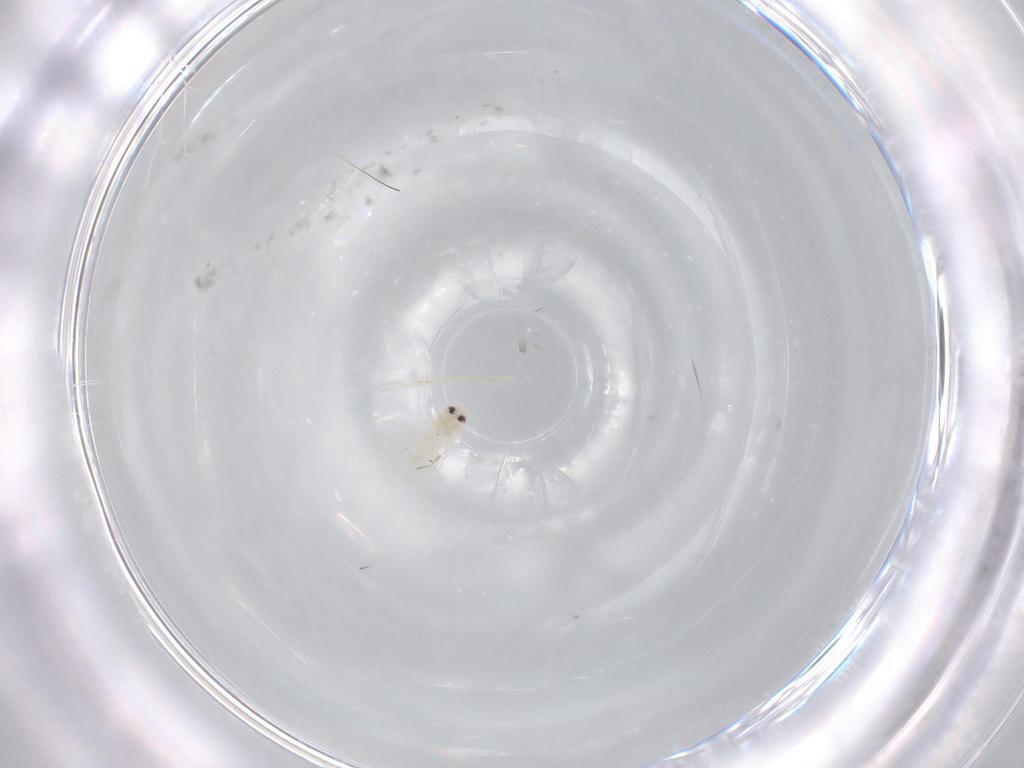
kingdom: Animalia
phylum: Arthropoda
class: Insecta
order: Hemiptera
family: Aleyrodidae
